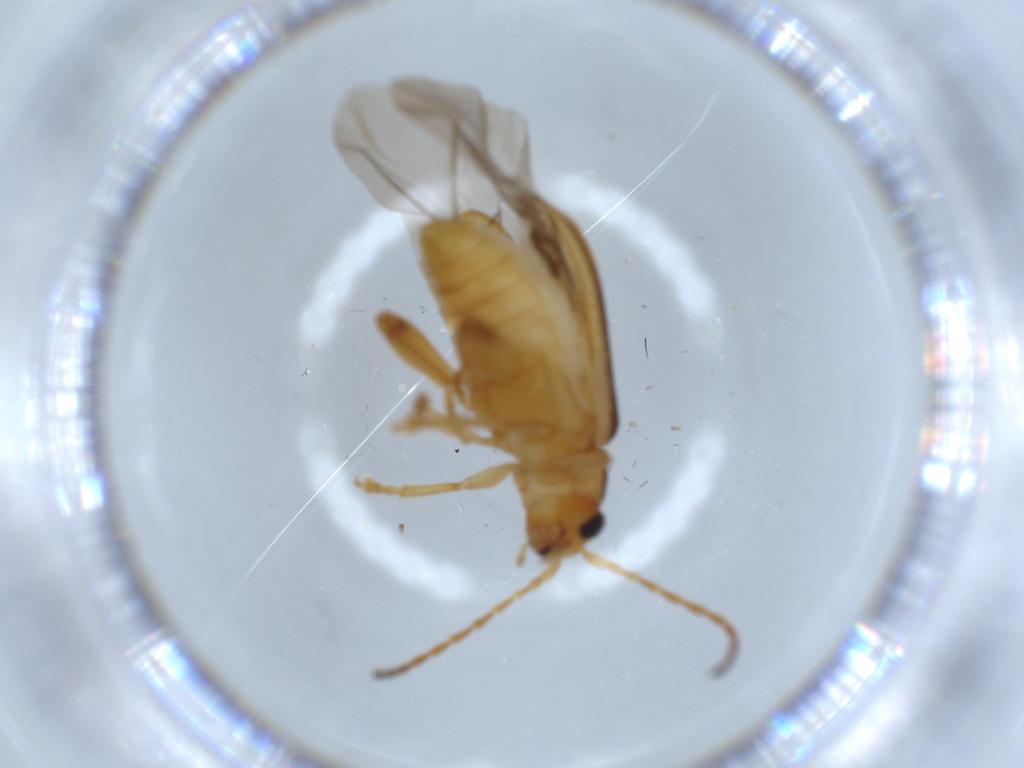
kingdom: Animalia
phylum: Arthropoda
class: Insecta
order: Coleoptera
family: Chrysomelidae
